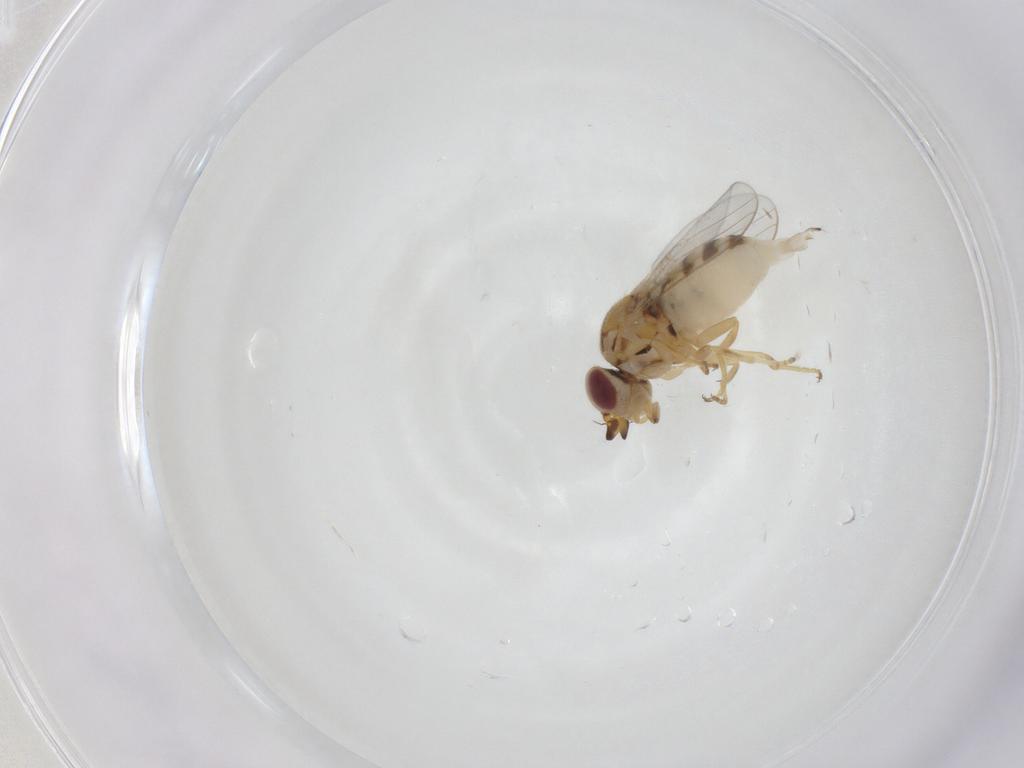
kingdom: Animalia
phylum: Arthropoda
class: Insecta
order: Diptera
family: Chloropidae
